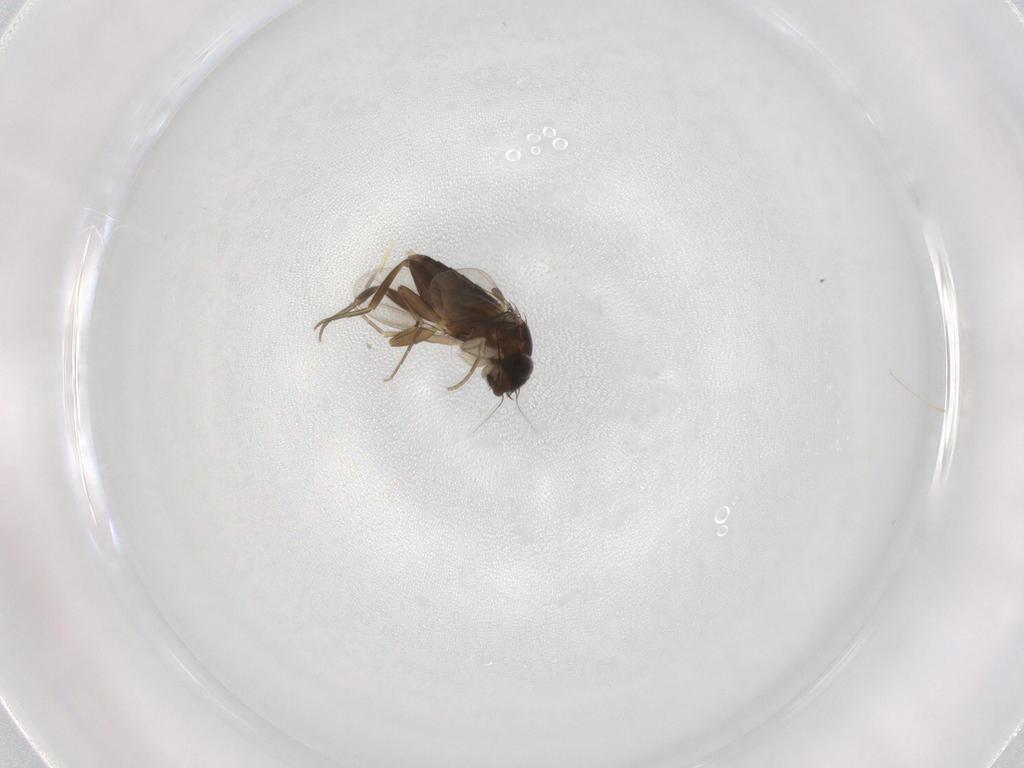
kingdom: Animalia
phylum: Arthropoda
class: Insecta
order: Diptera
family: Phoridae
